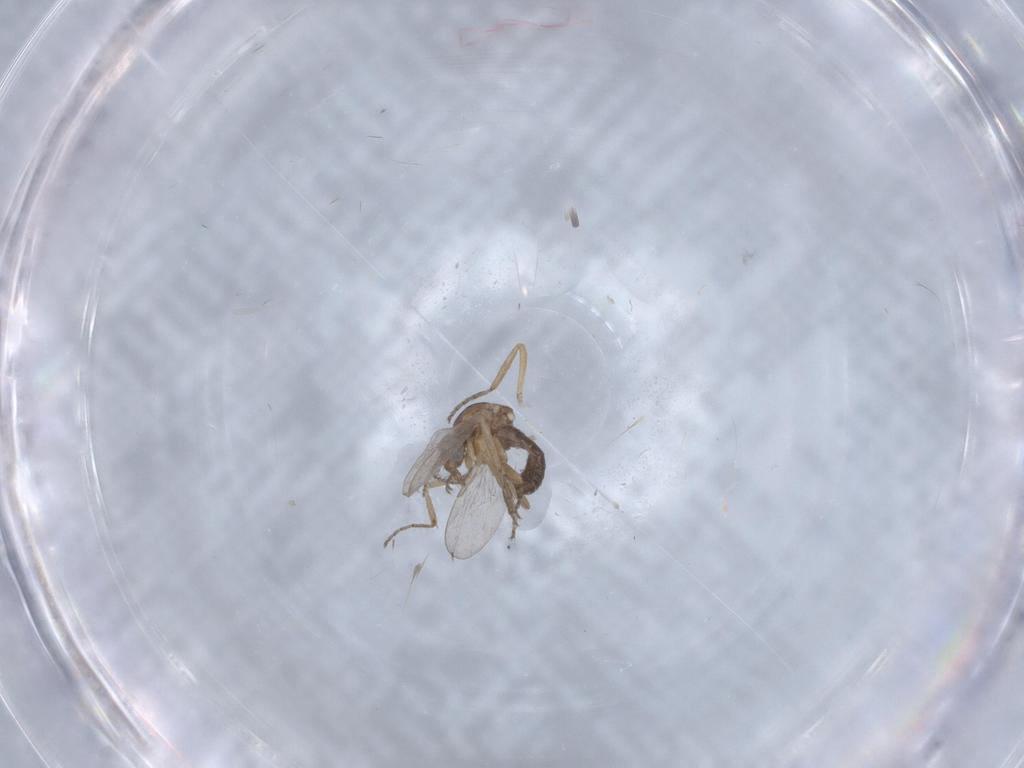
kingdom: Animalia
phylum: Arthropoda
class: Insecta
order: Diptera
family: Ceratopogonidae
